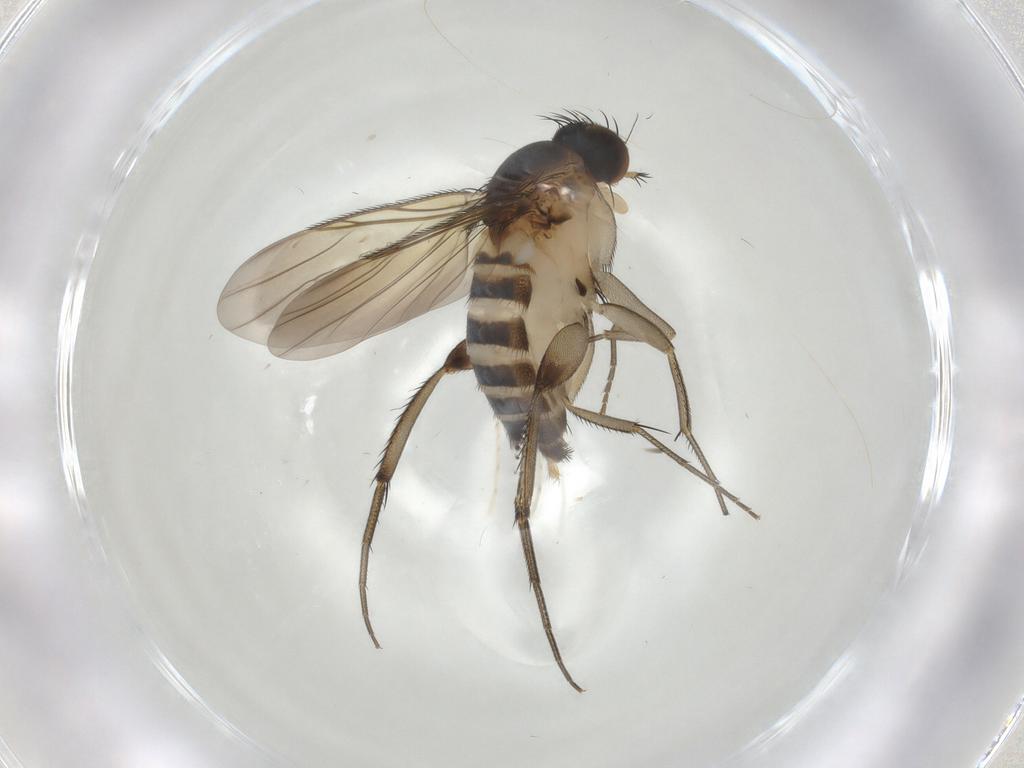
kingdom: Animalia
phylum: Arthropoda
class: Insecta
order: Diptera
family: Phoridae
